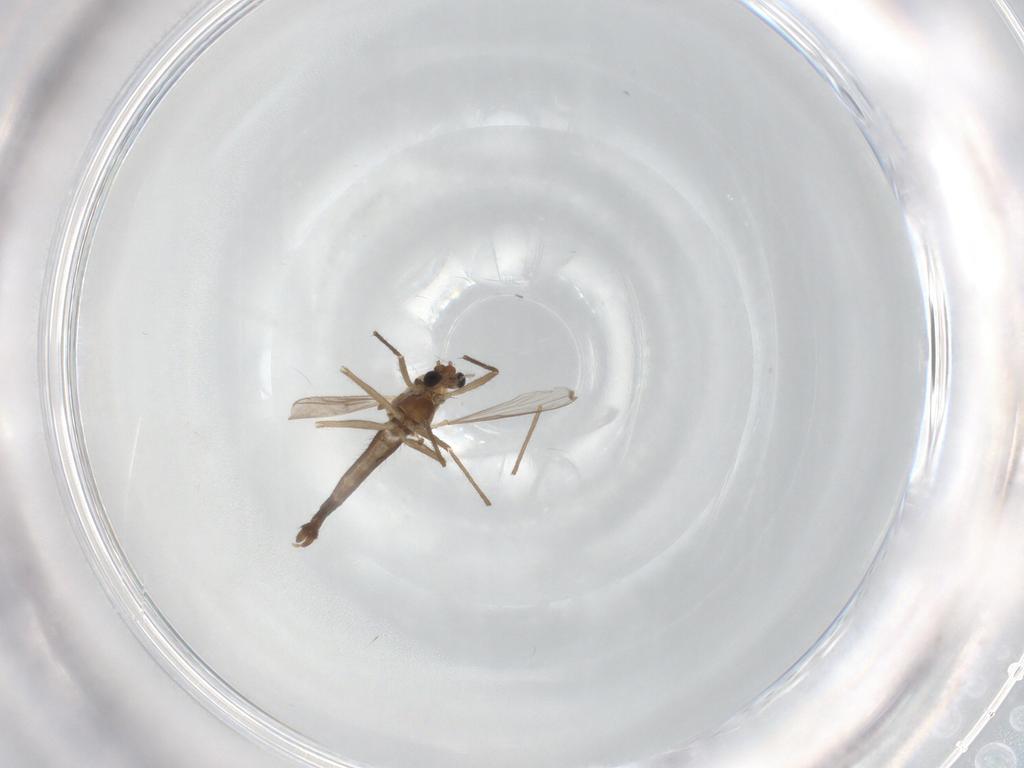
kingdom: Animalia
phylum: Arthropoda
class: Insecta
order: Diptera
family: Chironomidae
